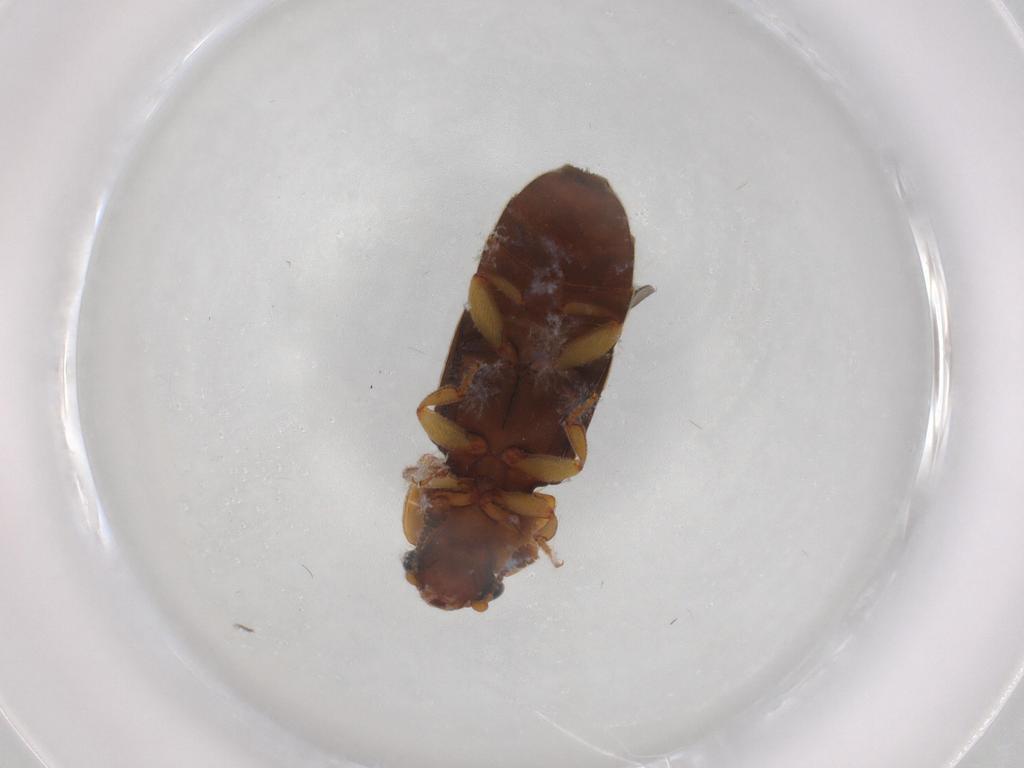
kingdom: Animalia
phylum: Arthropoda
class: Insecta
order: Coleoptera
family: Nitidulidae
